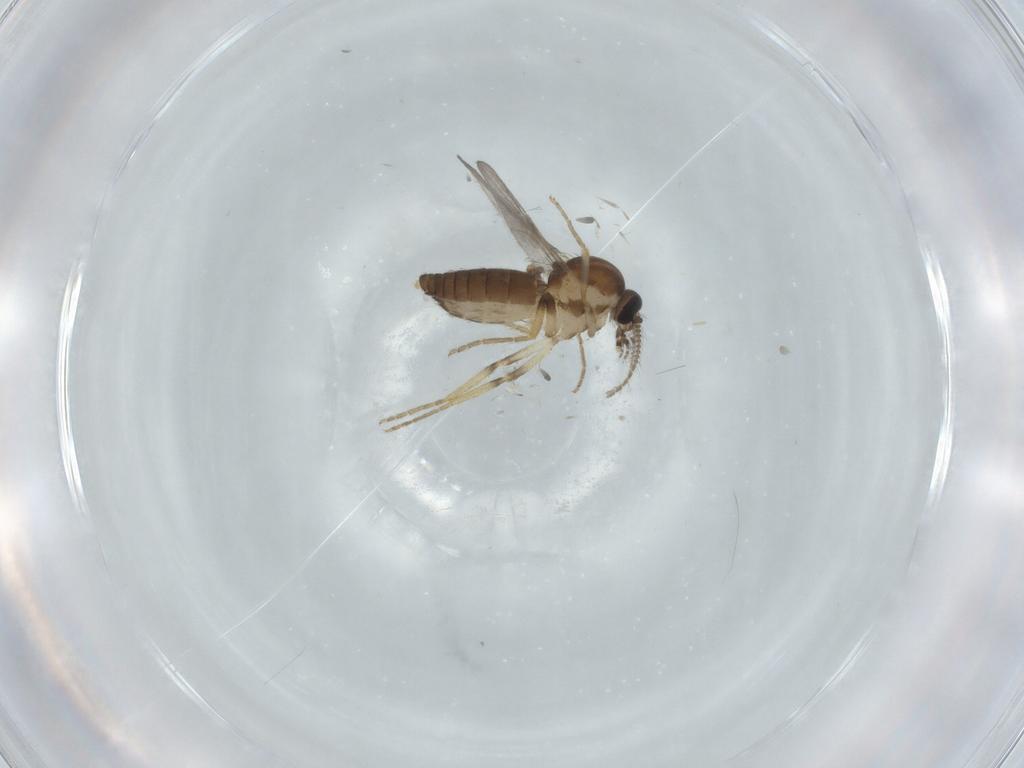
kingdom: Animalia
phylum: Arthropoda
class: Insecta
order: Diptera
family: Ceratopogonidae
